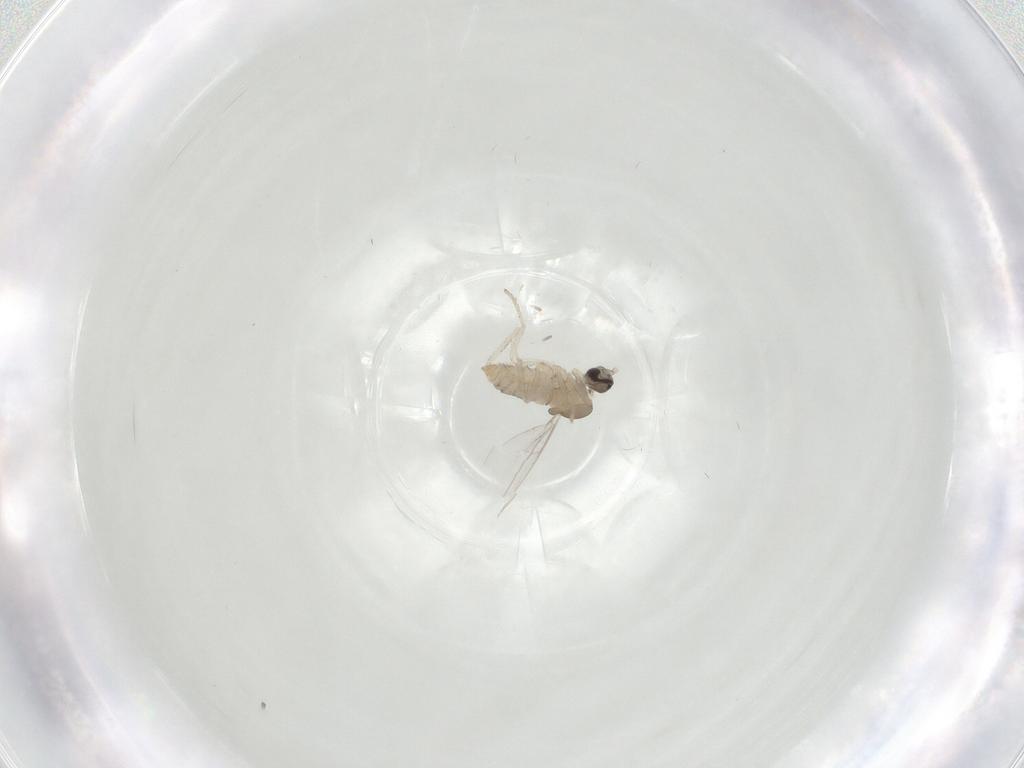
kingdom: Animalia
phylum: Arthropoda
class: Insecta
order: Diptera
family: Cecidomyiidae
